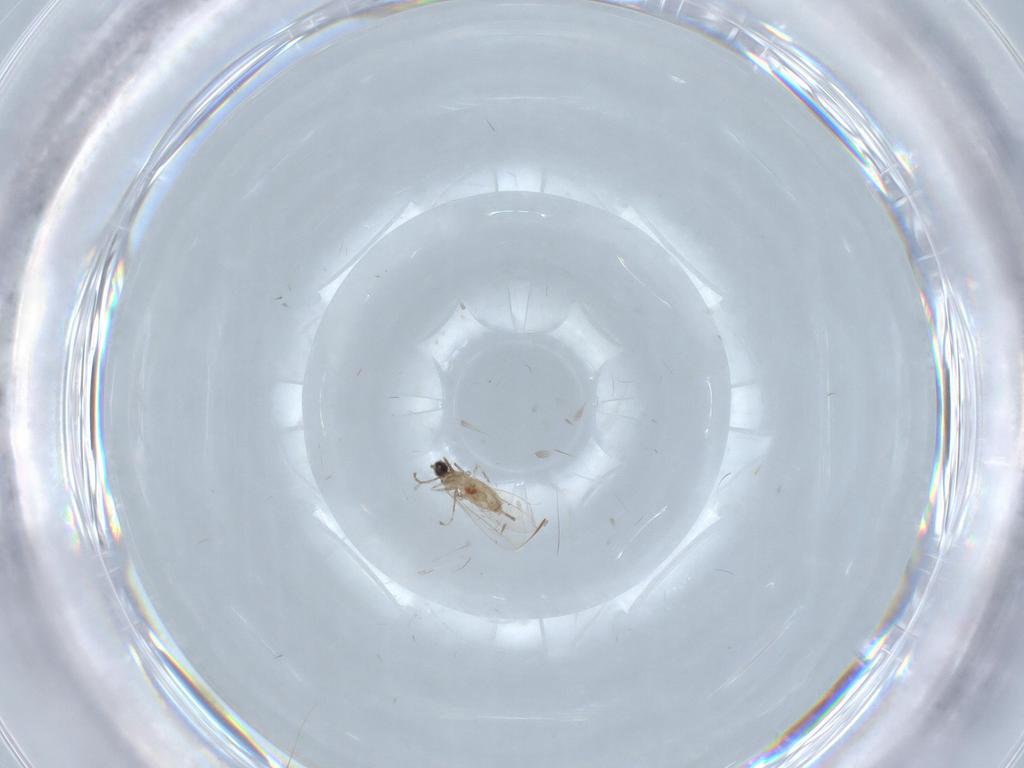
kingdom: Animalia
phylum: Arthropoda
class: Insecta
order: Diptera
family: Cecidomyiidae
